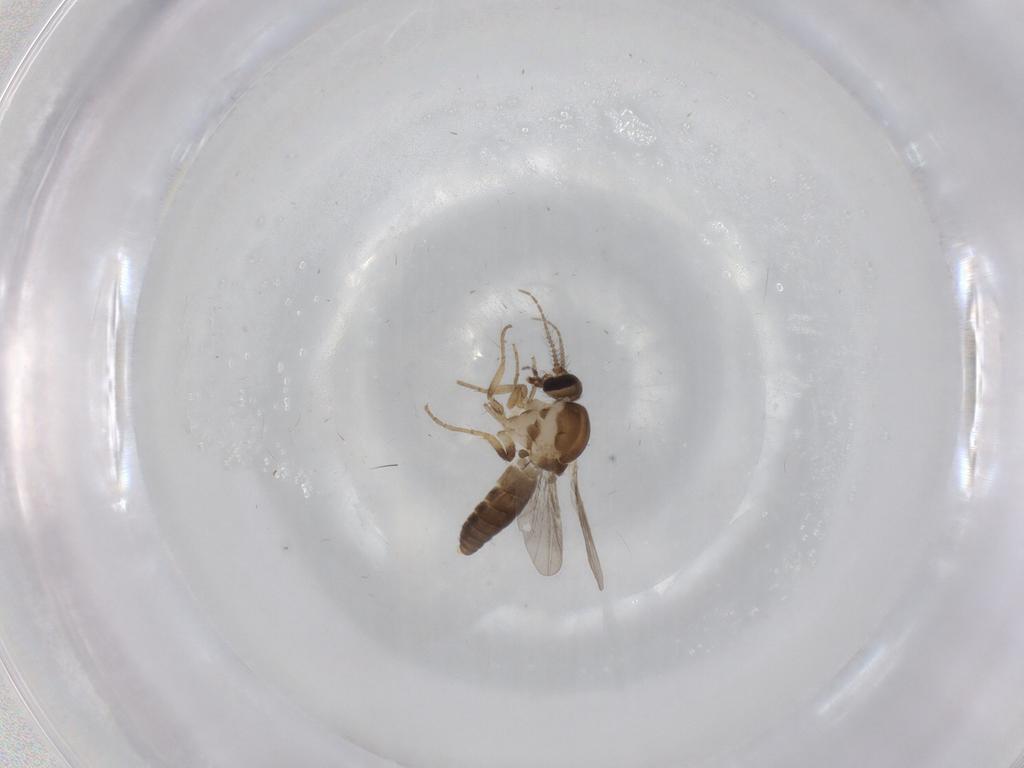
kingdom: Animalia
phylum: Arthropoda
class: Insecta
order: Diptera
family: Ceratopogonidae
